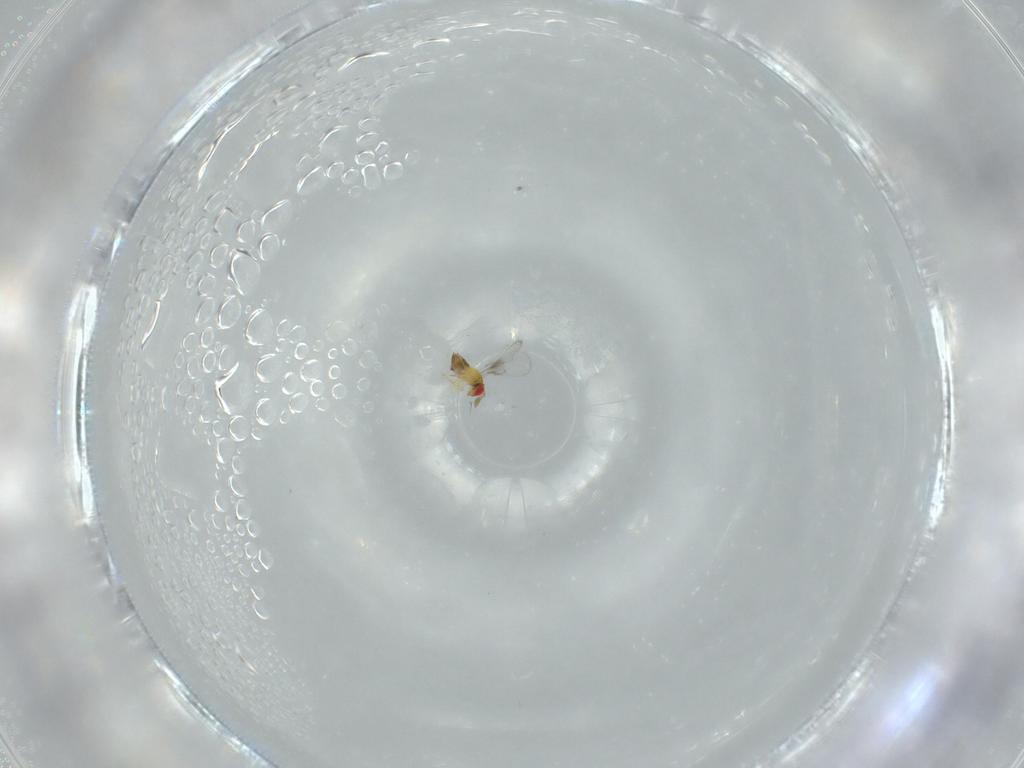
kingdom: Animalia
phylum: Arthropoda
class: Insecta
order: Hymenoptera
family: Trichogrammatidae
